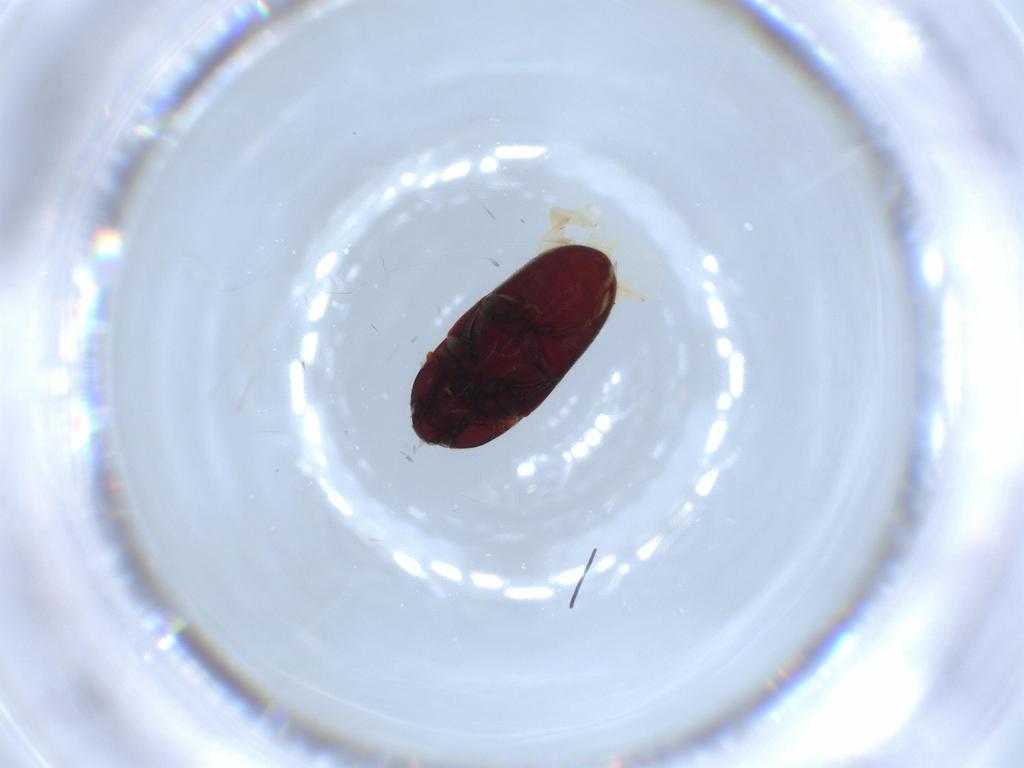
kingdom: Animalia
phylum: Arthropoda
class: Insecta
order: Coleoptera
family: Throscidae
